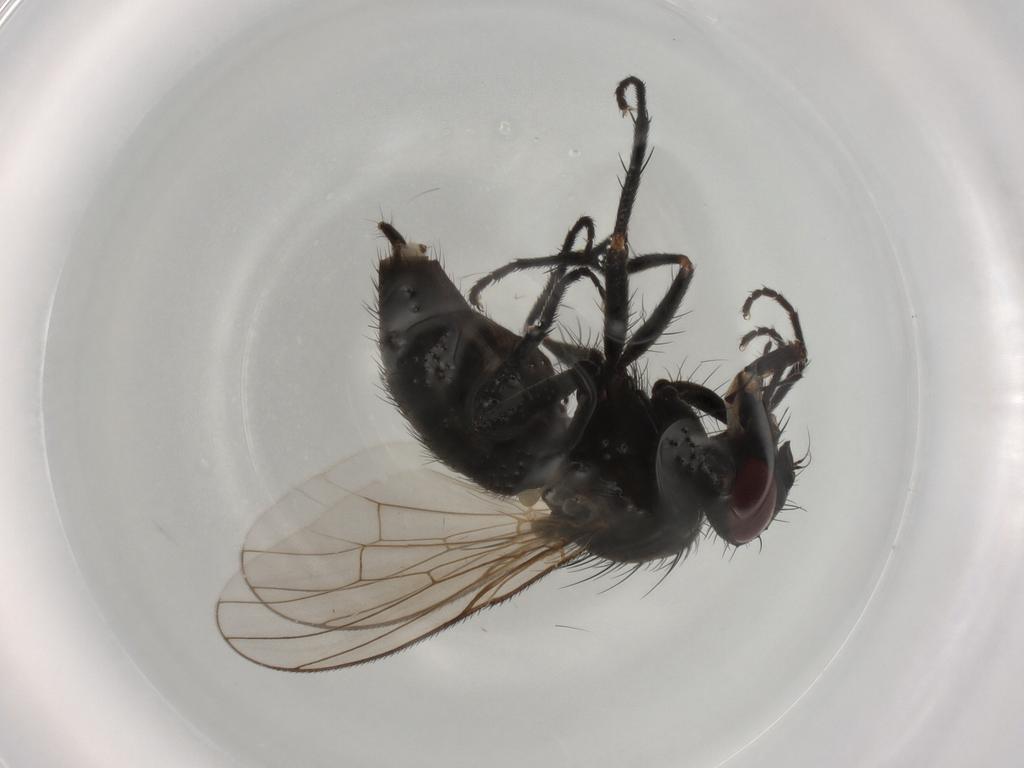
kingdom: Animalia
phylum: Arthropoda
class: Insecta
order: Diptera
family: Muscidae
